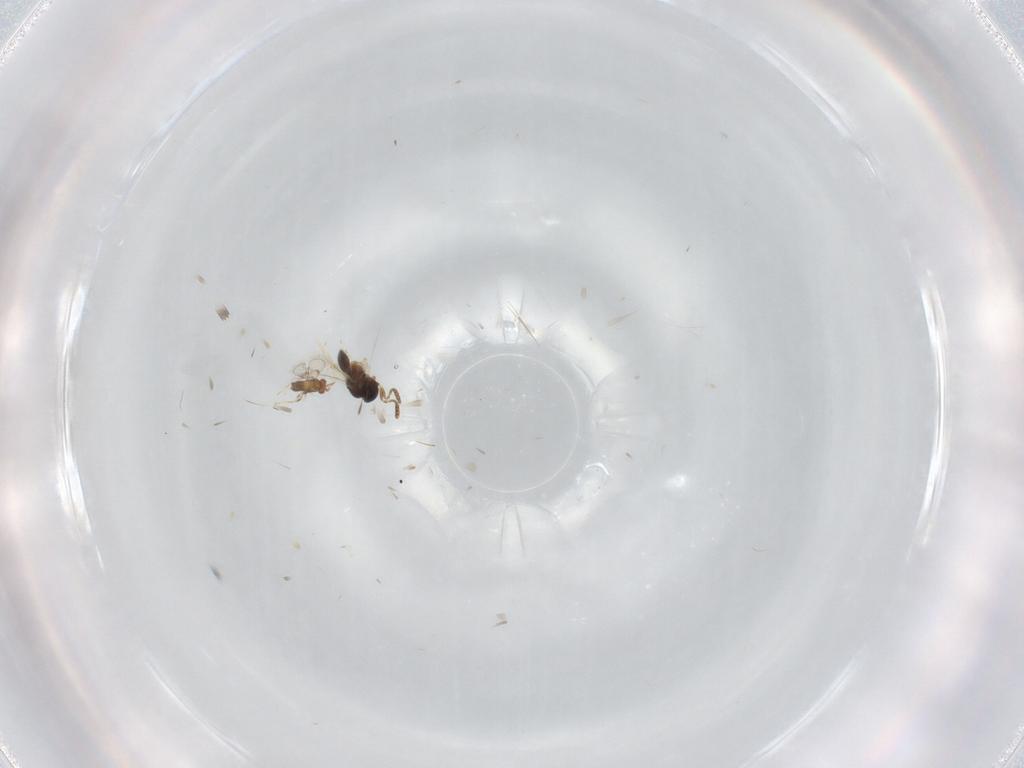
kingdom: Animalia
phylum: Arthropoda
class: Insecta
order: Hymenoptera
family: Scelionidae
